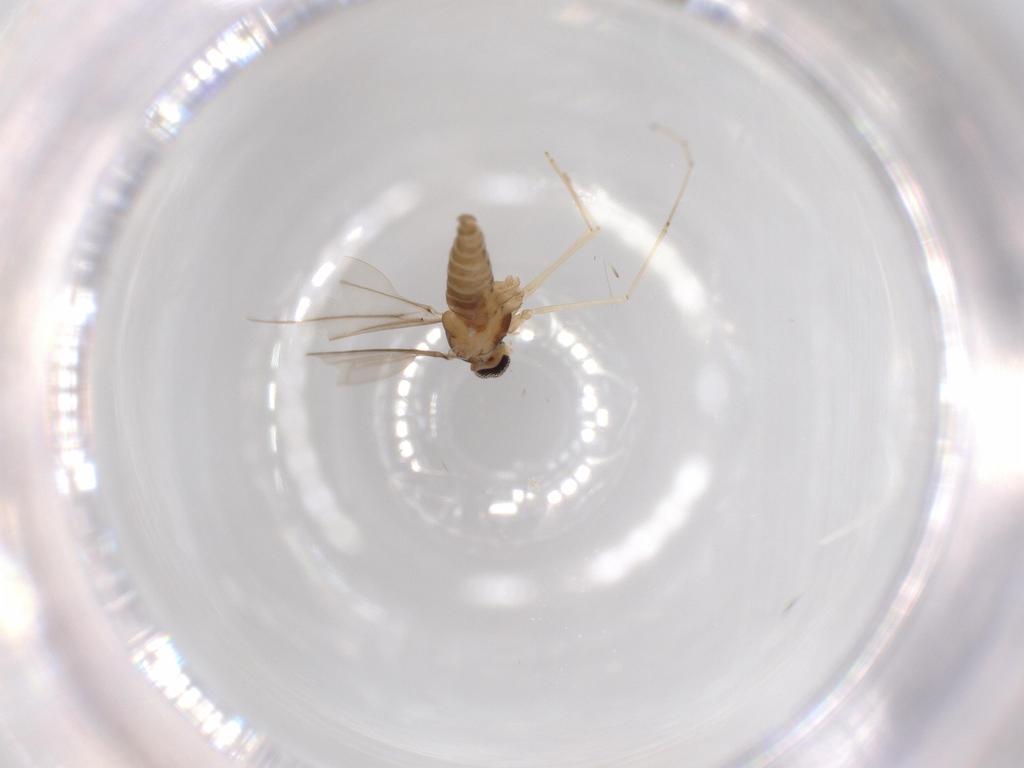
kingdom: Animalia
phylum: Arthropoda
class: Insecta
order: Diptera
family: Cecidomyiidae
